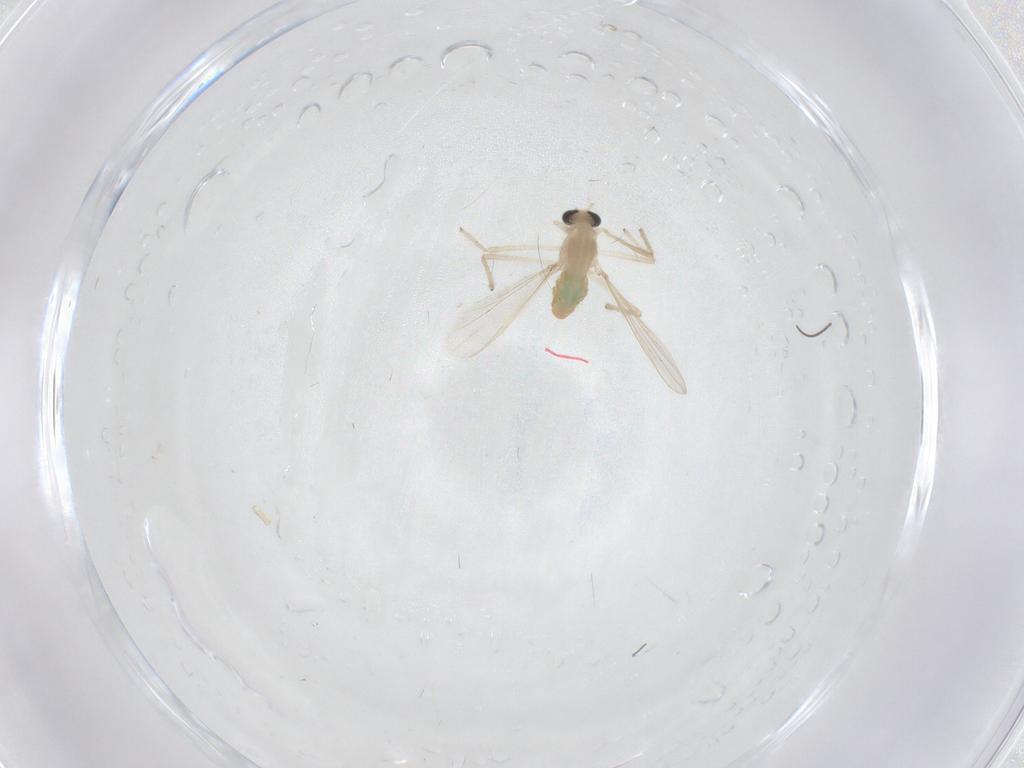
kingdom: Animalia
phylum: Arthropoda
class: Insecta
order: Diptera
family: Chironomidae
